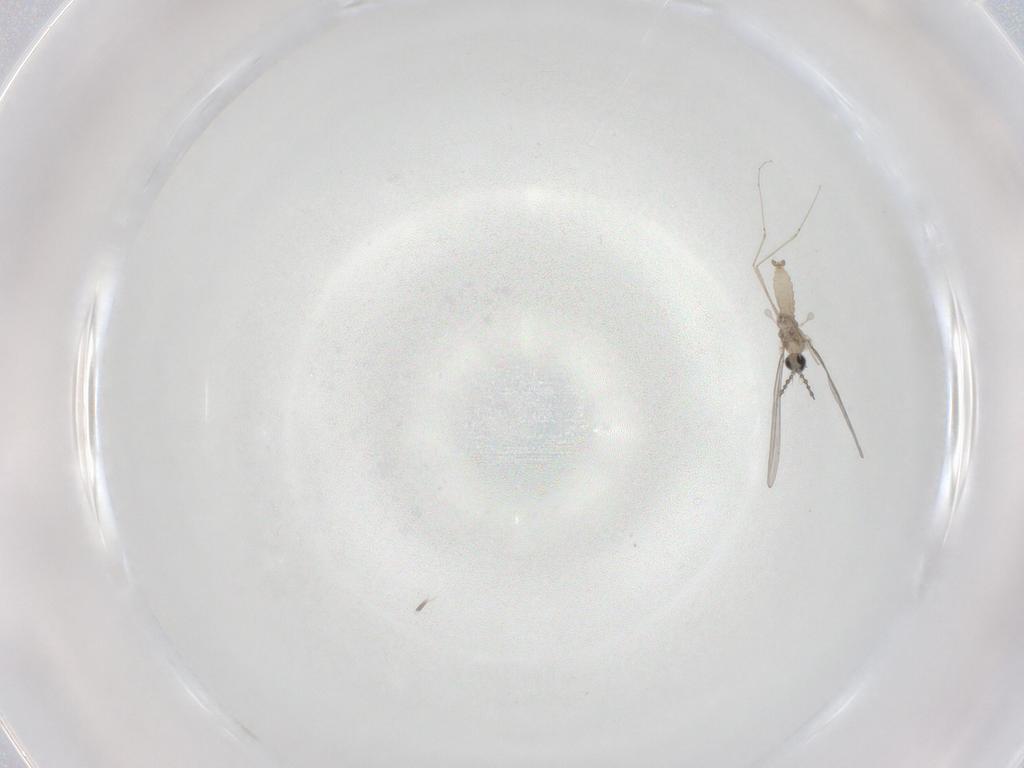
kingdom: Animalia
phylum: Arthropoda
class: Insecta
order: Diptera
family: Cecidomyiidae
